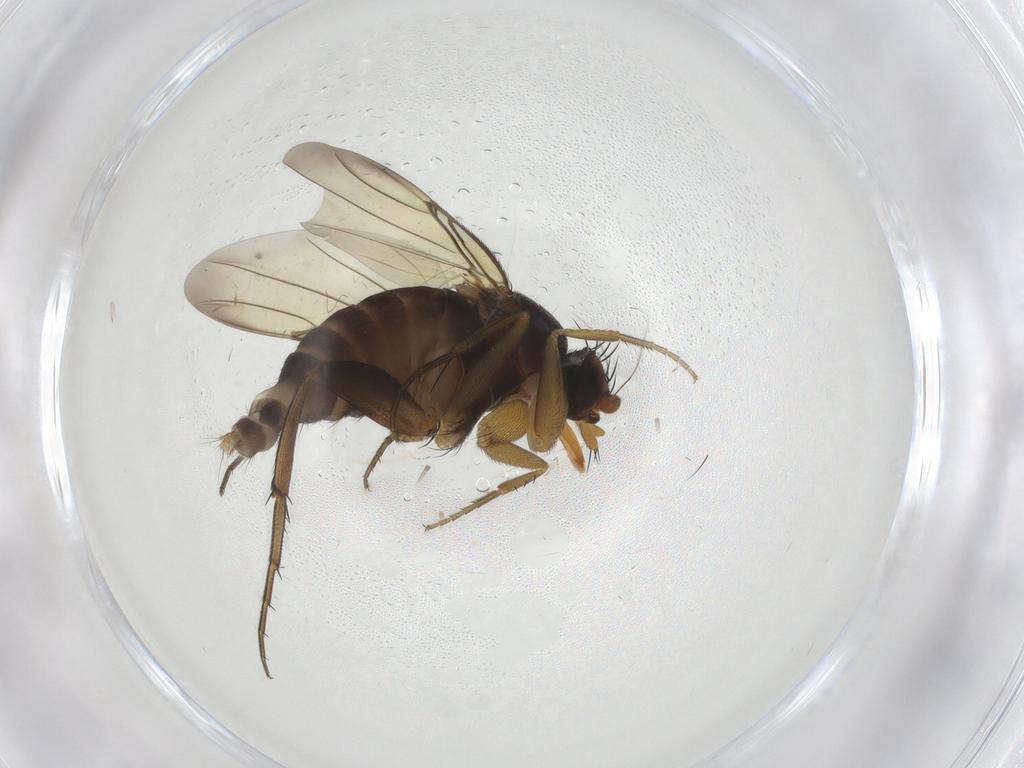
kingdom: Animalia
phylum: Arthropoda
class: Insecta
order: Diptera
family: Phoridae
